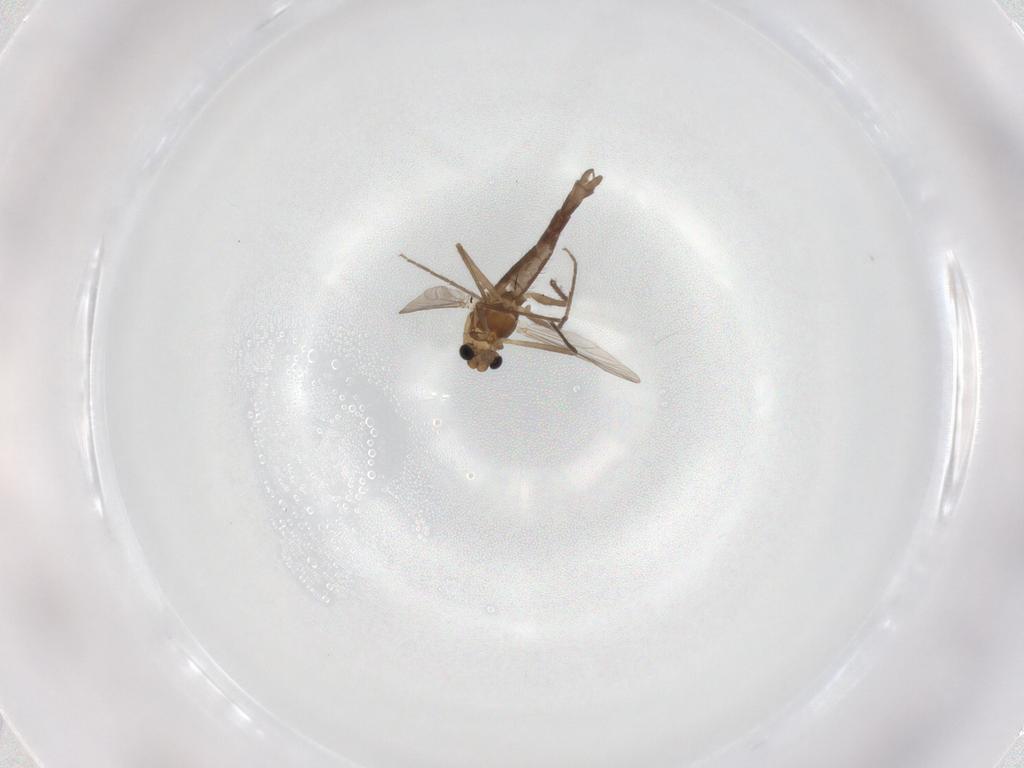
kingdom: Animalia
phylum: Arthropoda
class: Insecta
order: Diptera
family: Chironomidae
